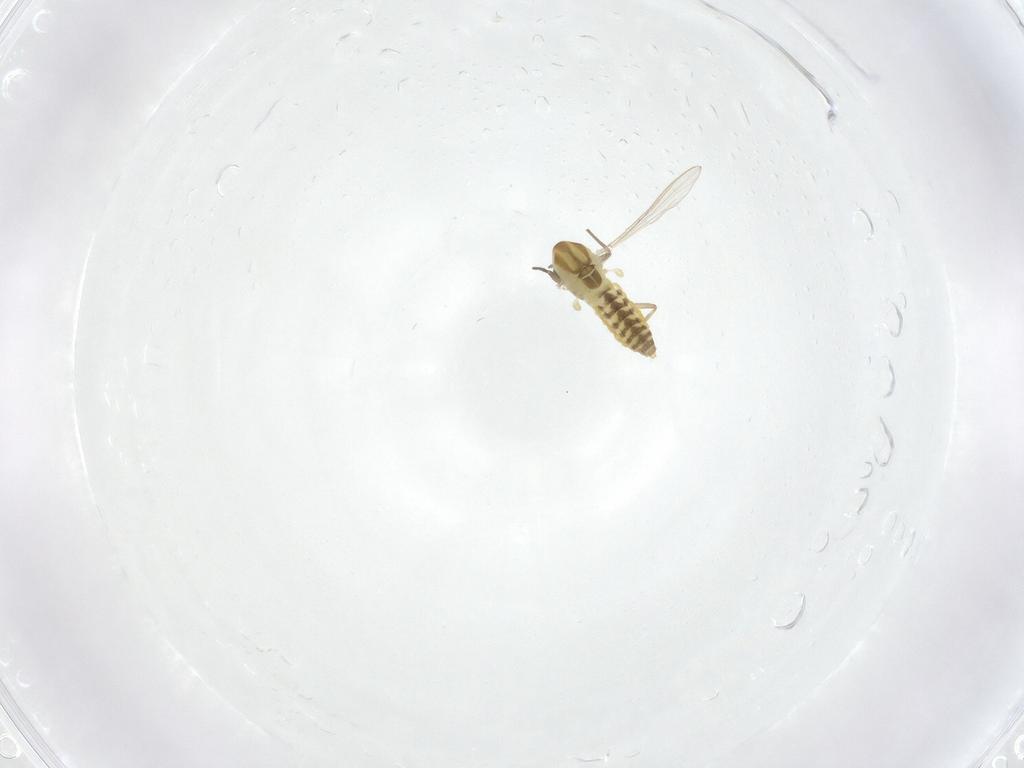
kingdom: Animalia
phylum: Arthropoda
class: Insecta
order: Diptera
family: Chironomidae
